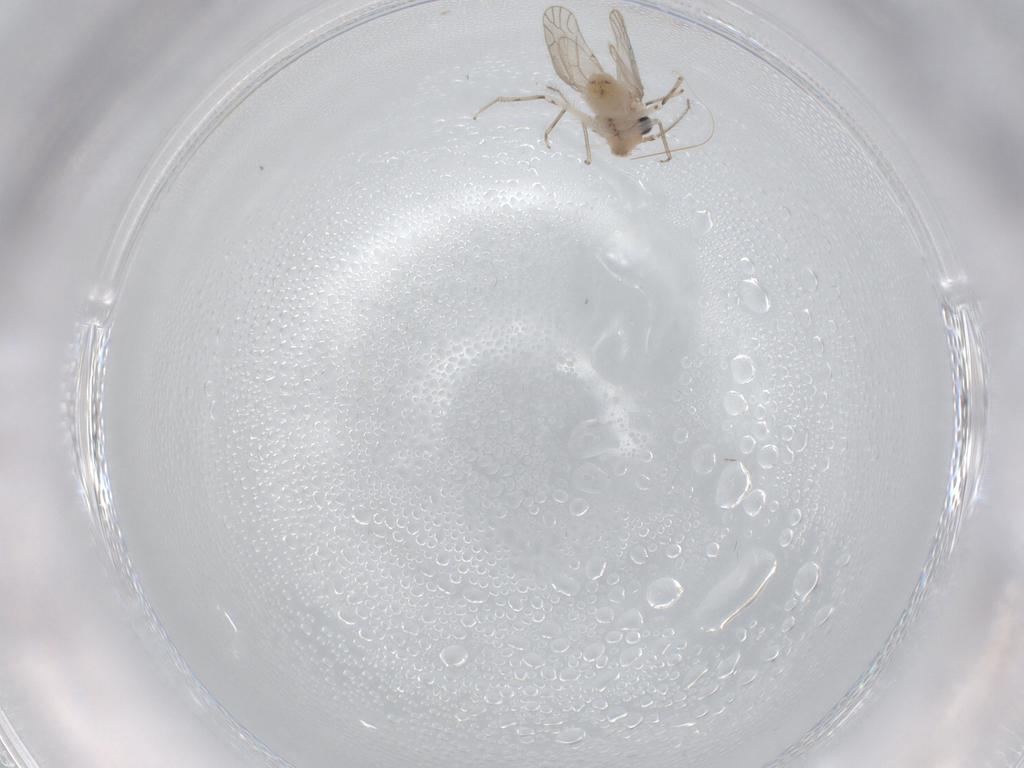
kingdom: Animalia
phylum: Arthropoda
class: Insecta
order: Psocodea
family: Caeciliusidae
